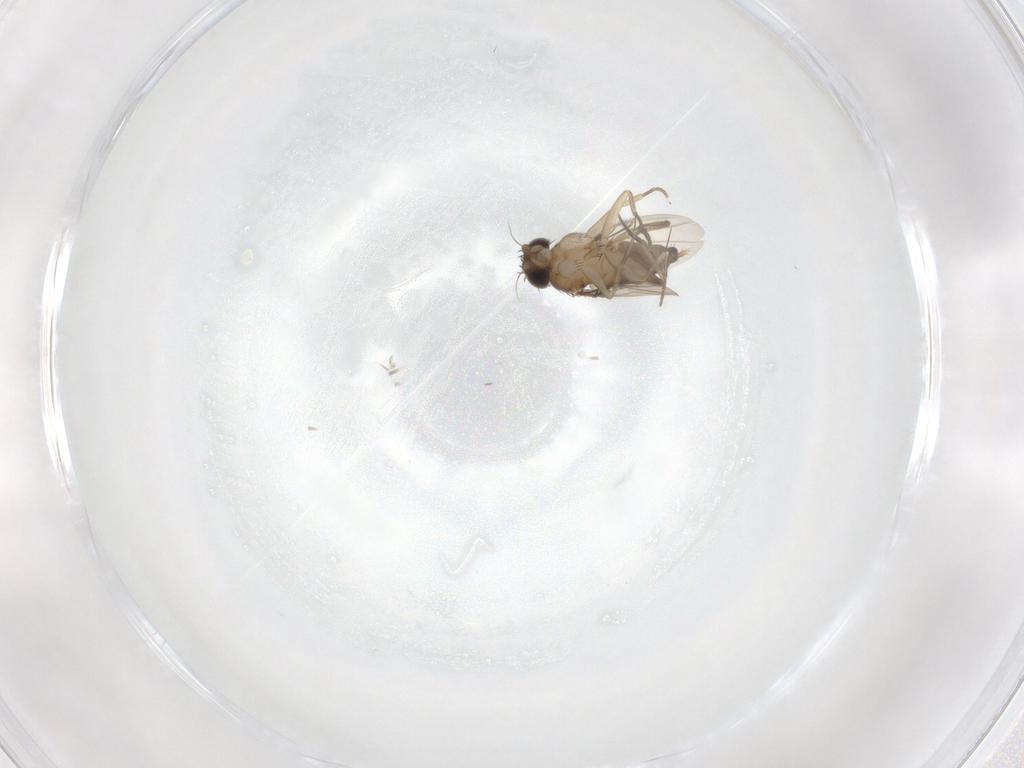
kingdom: Animalia
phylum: Arthropoda
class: Insecta
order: Diptera
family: Phoridae
